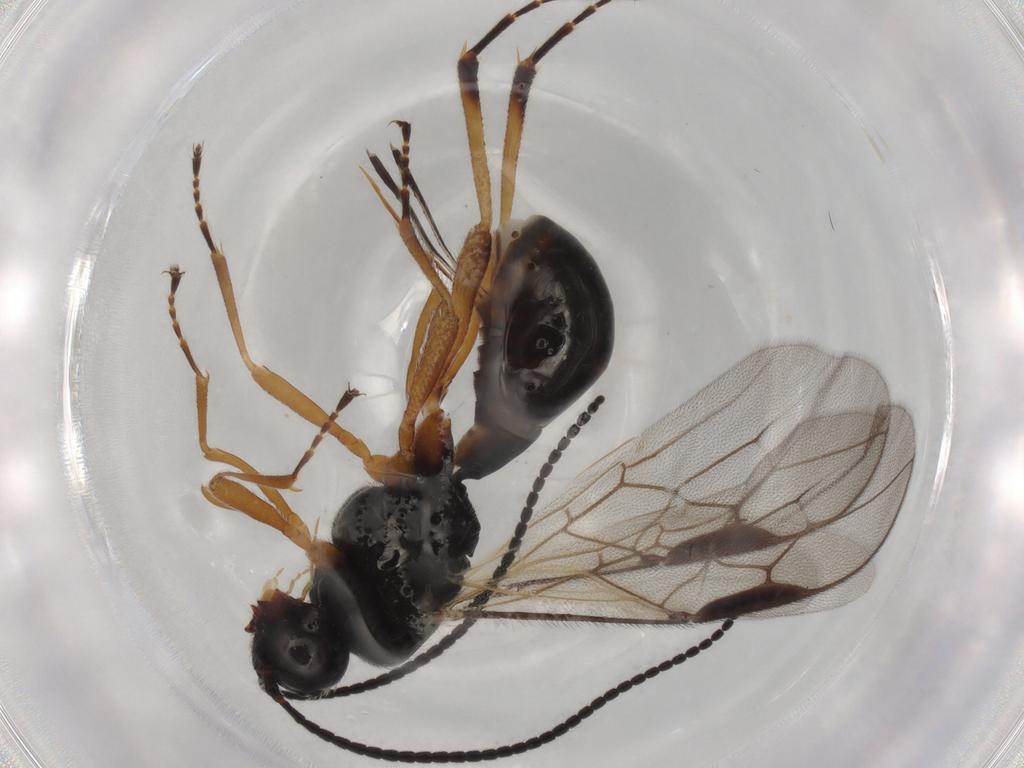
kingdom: Animalia
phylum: Arthropoda
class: Insecta
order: Hymenoptera
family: Braconidae
